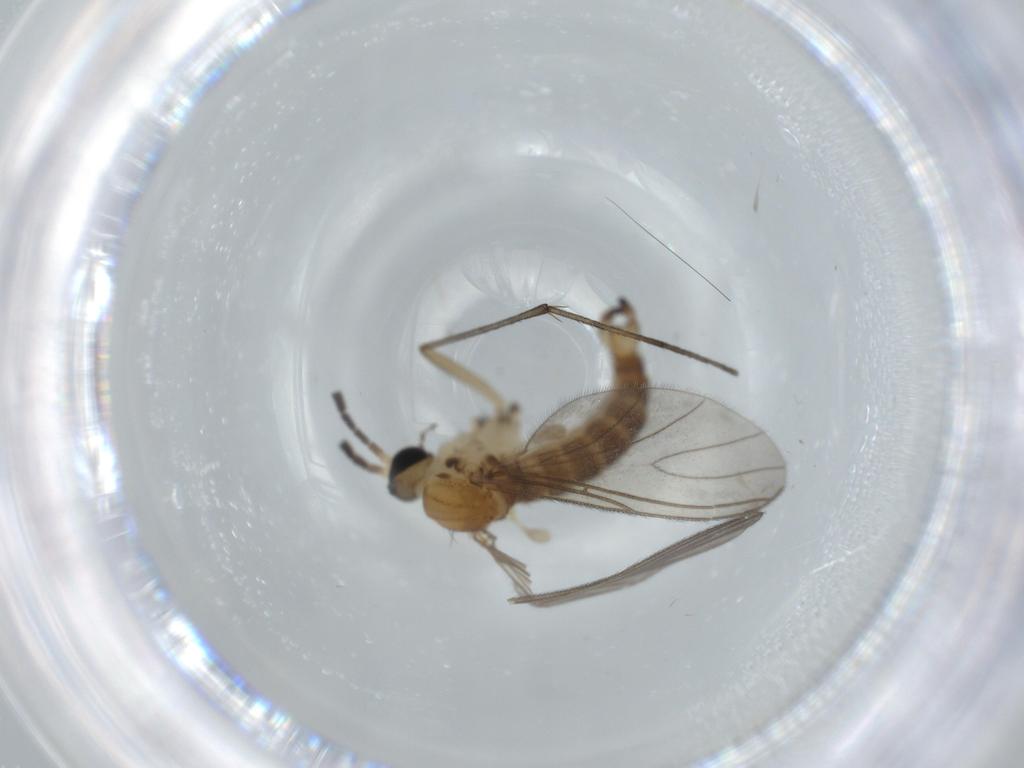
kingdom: Animalia
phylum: Arthropoda
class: Insecta
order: Diptera
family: Sciaridae
